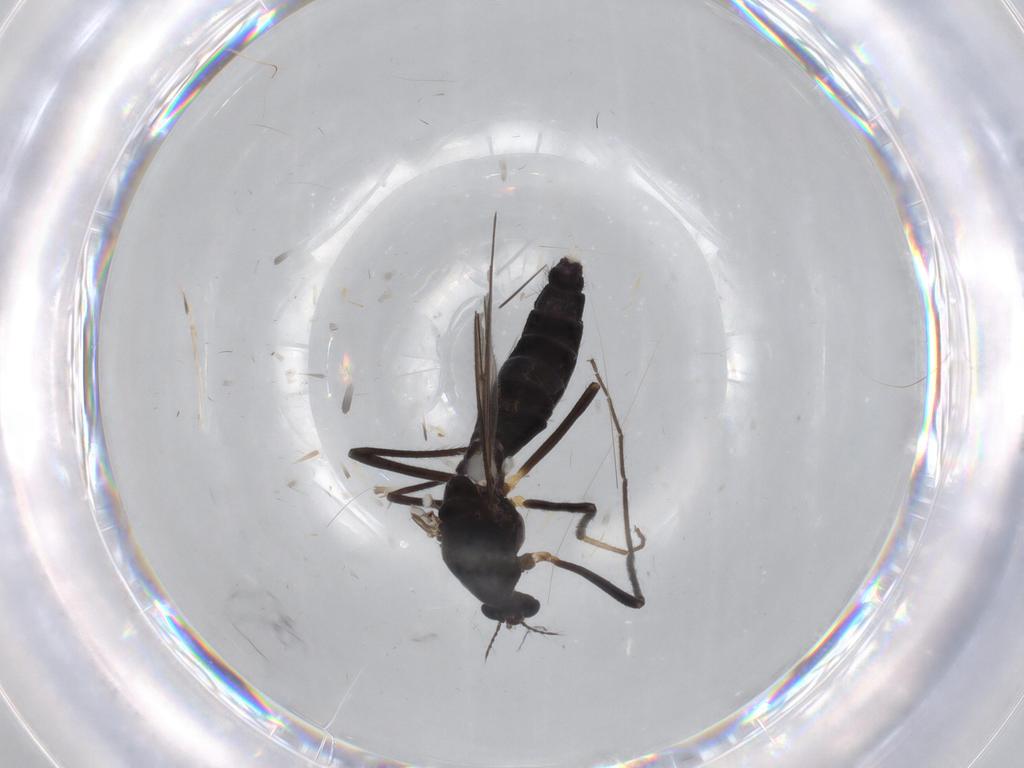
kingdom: Animalia
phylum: Arthropoda
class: Insecta
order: Diptera
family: Chironomidae
